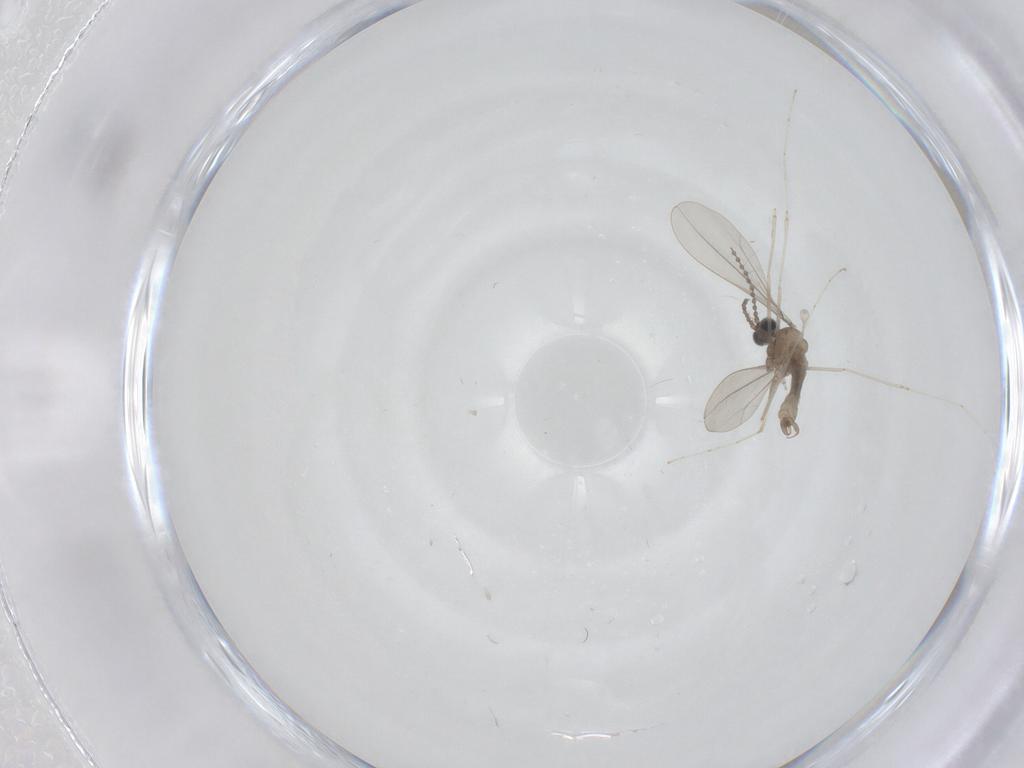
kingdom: Animalia
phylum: Arthropoda
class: Insecta
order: Diptera
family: Cecidomyiidae
